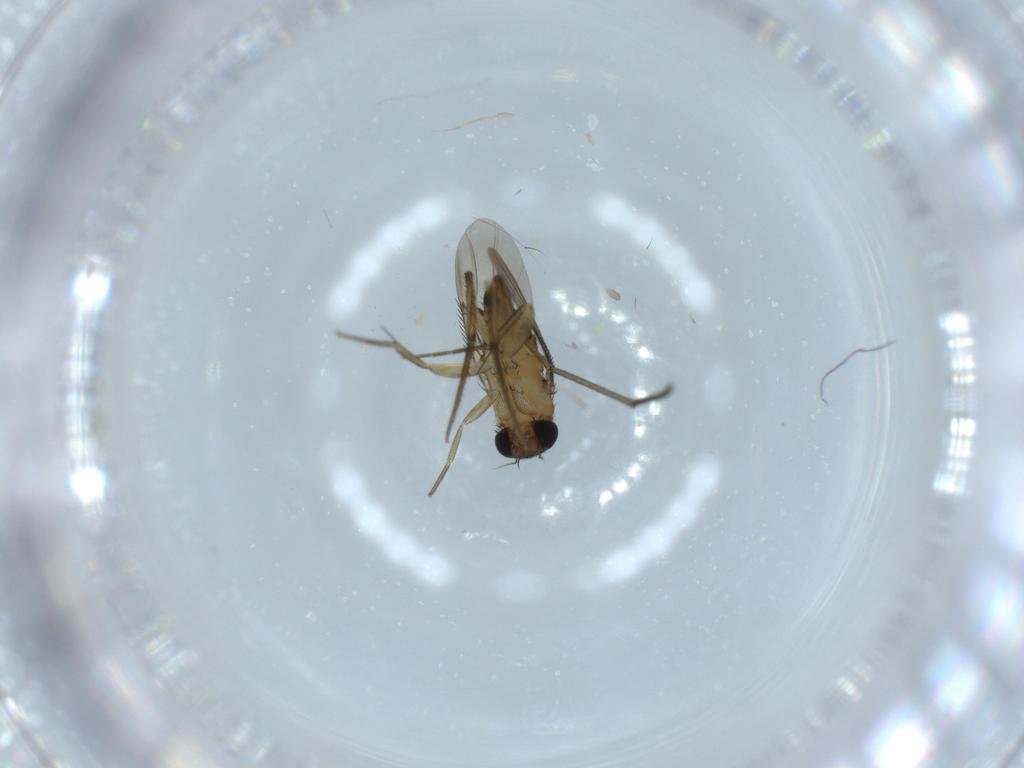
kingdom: Animalia
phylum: Arthropoda
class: Insecta
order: Diptera
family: Phoridae
